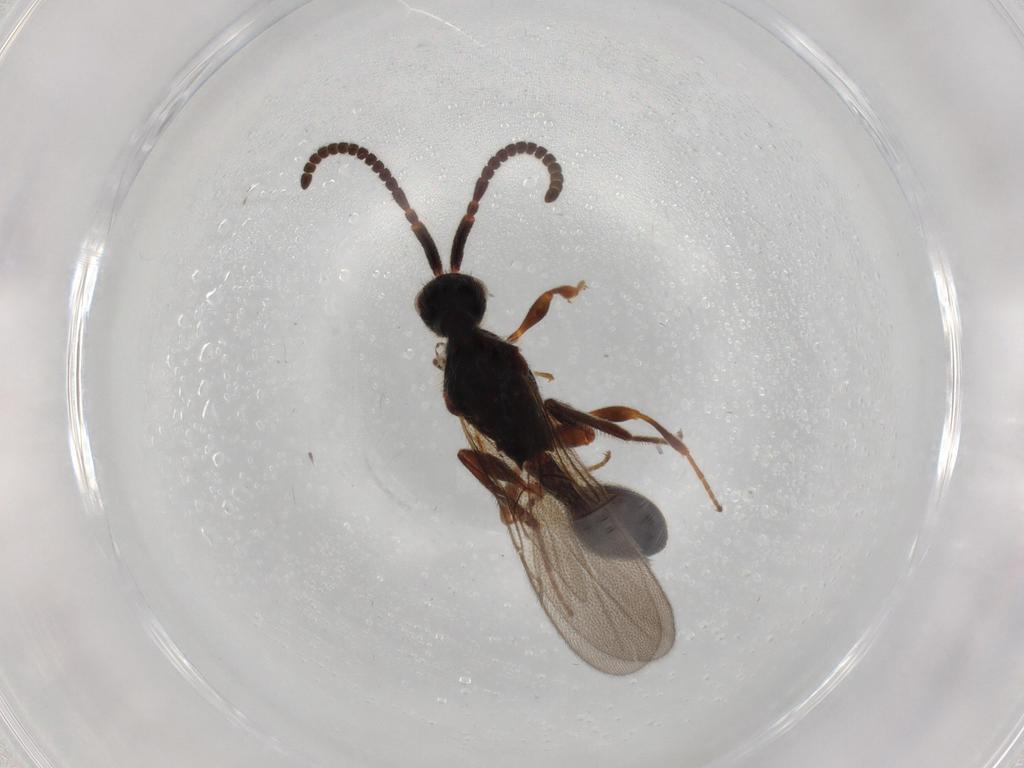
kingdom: Animalia
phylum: Arthropoda
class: Insecta
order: Hymenoptera
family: Diapriidae
